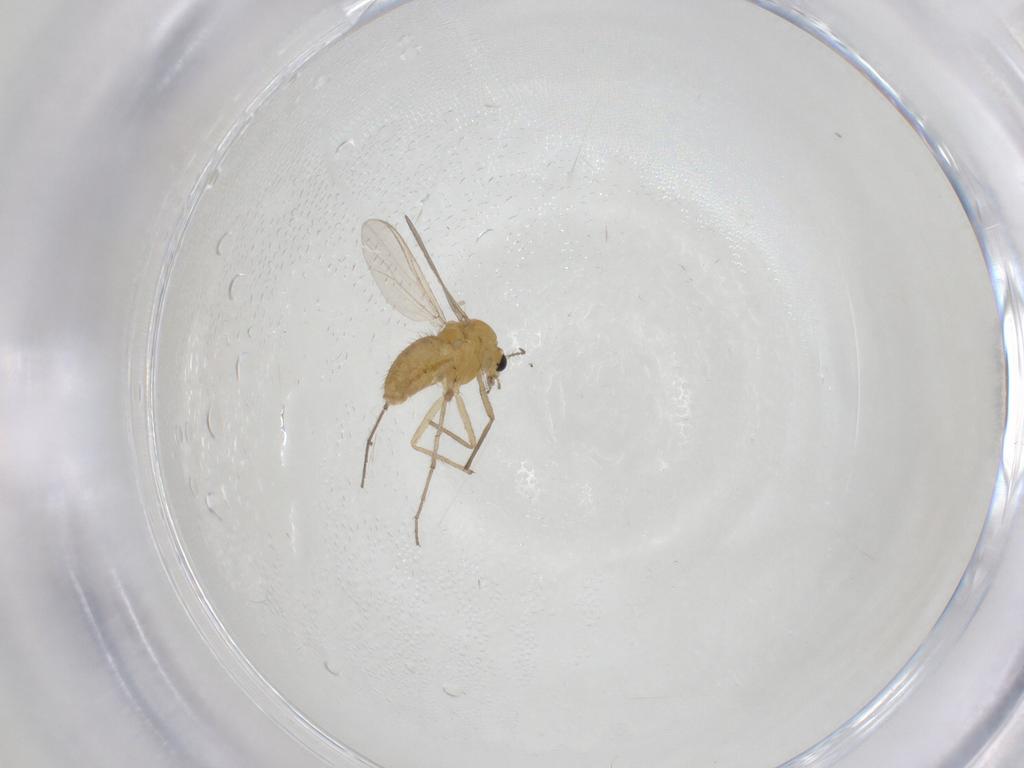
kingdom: Animalia
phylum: Arthropoda
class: Insecta
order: Diptera
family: Chironomidae
